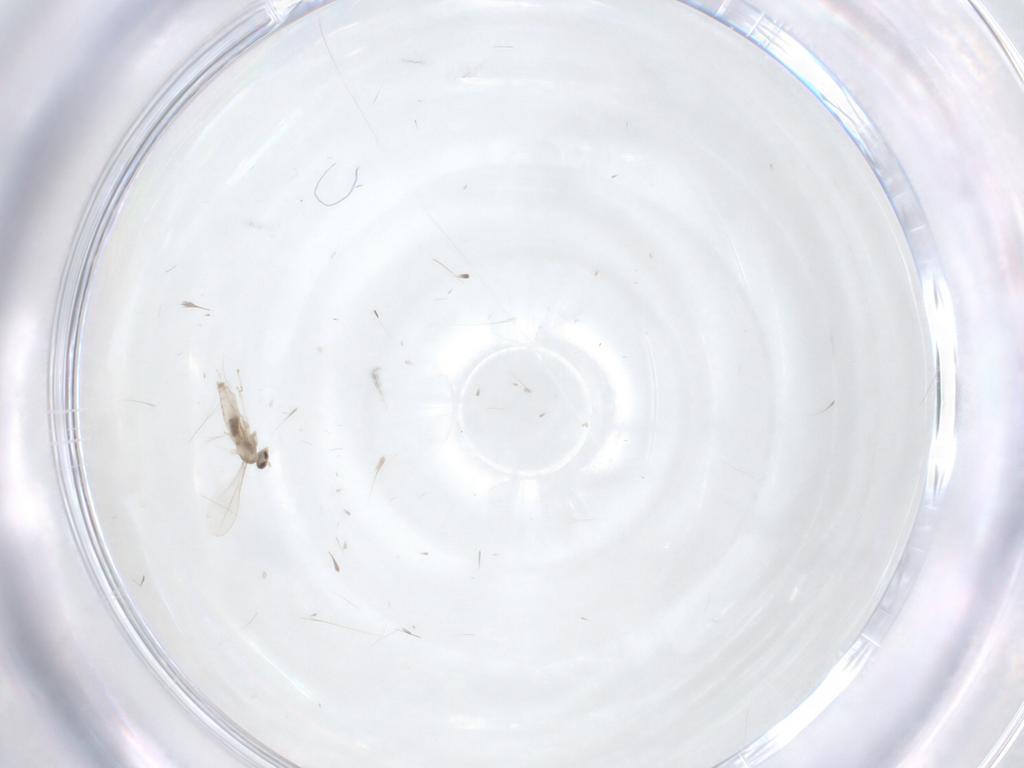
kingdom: Animalia
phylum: Arthropoda
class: Insecta
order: Diptera
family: Cecidomyiidae
